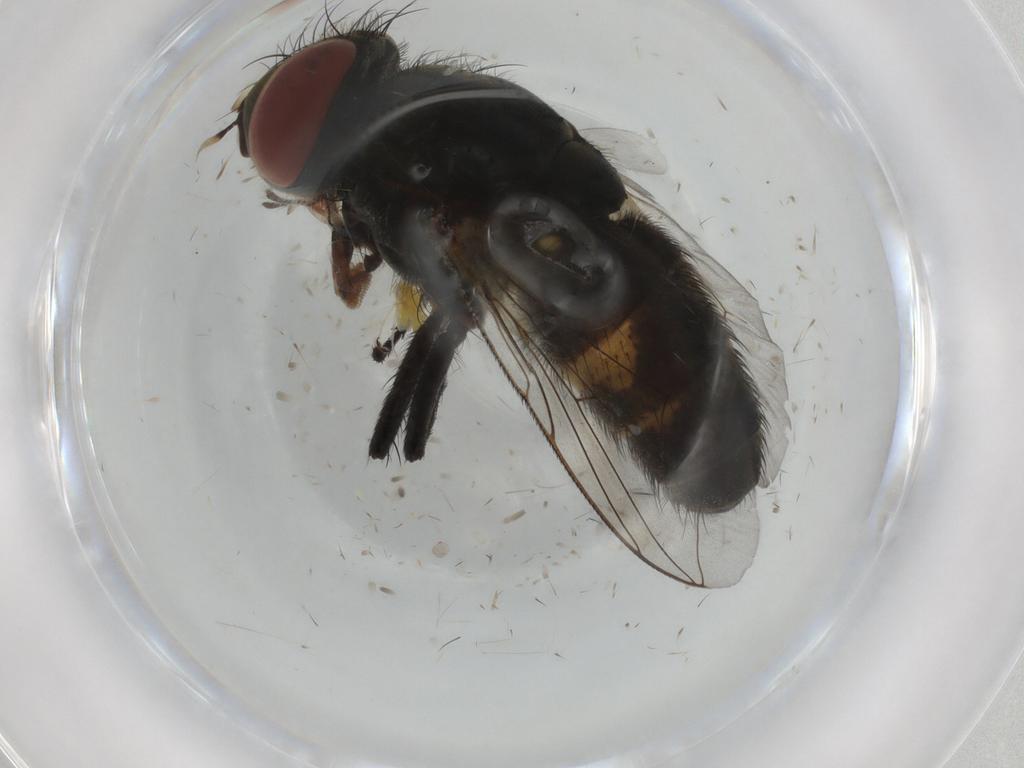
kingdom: Animalia
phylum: Arthropoda
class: Insecta
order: Diptera
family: Sarcophagidae
